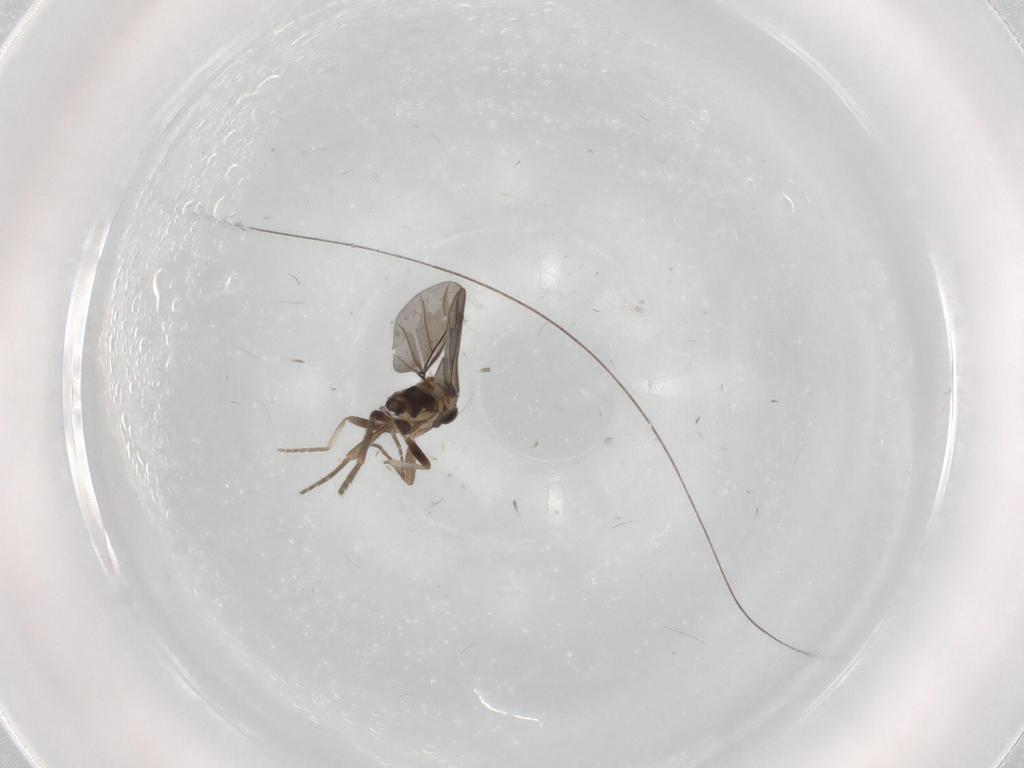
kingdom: Animalia
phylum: Arthropoda
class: Insecta
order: Diptera
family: Phoridae
